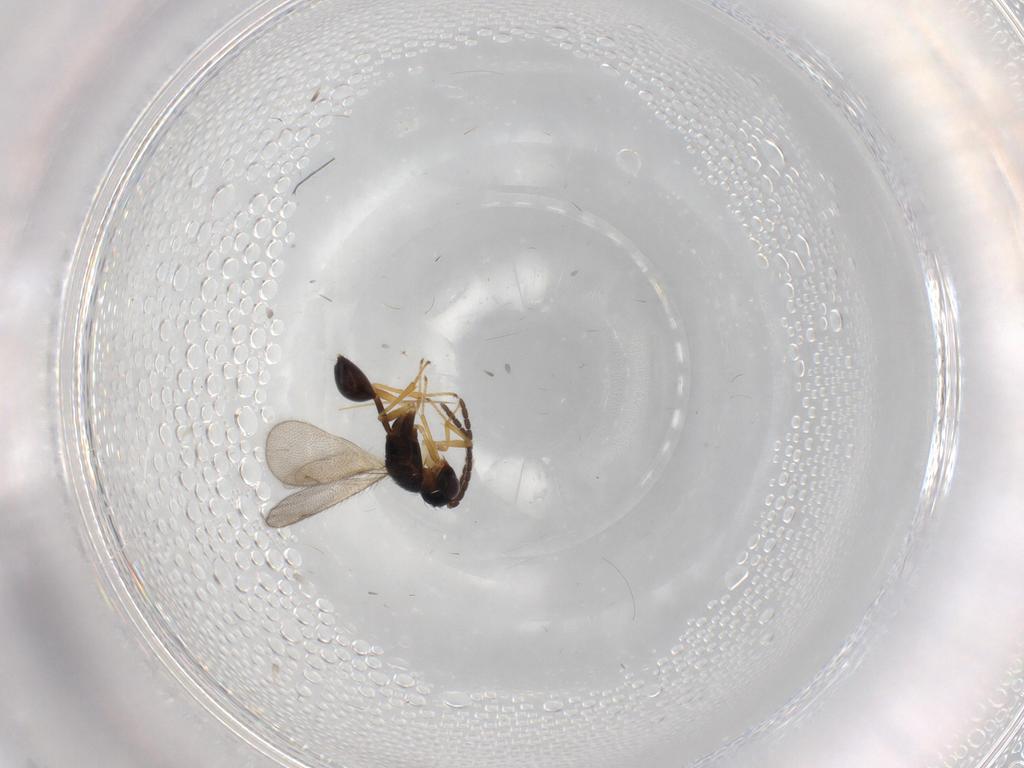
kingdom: Animalia
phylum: Arthropoda
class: Insecta
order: Hymenoptera
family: Diparidae
